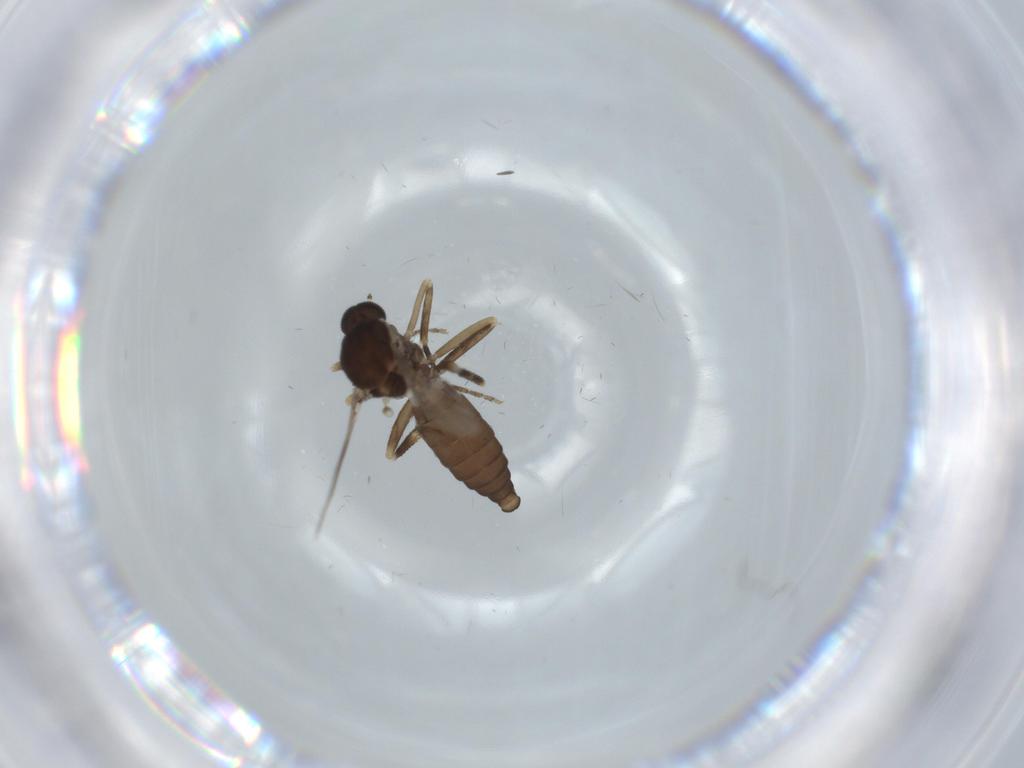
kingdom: Animalia
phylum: Arthropoda
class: Insecta
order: Diptera
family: Ceratopogonidae
